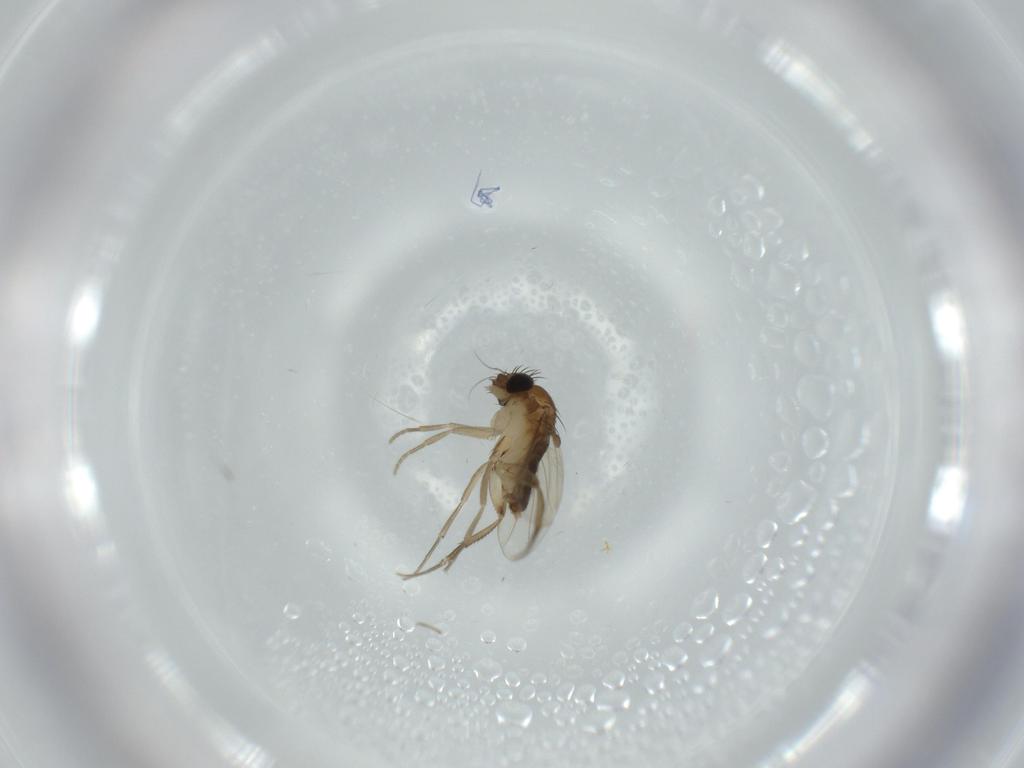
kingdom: Animalia
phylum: Arthropoda
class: Insecta
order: Diptera
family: Phoridae
